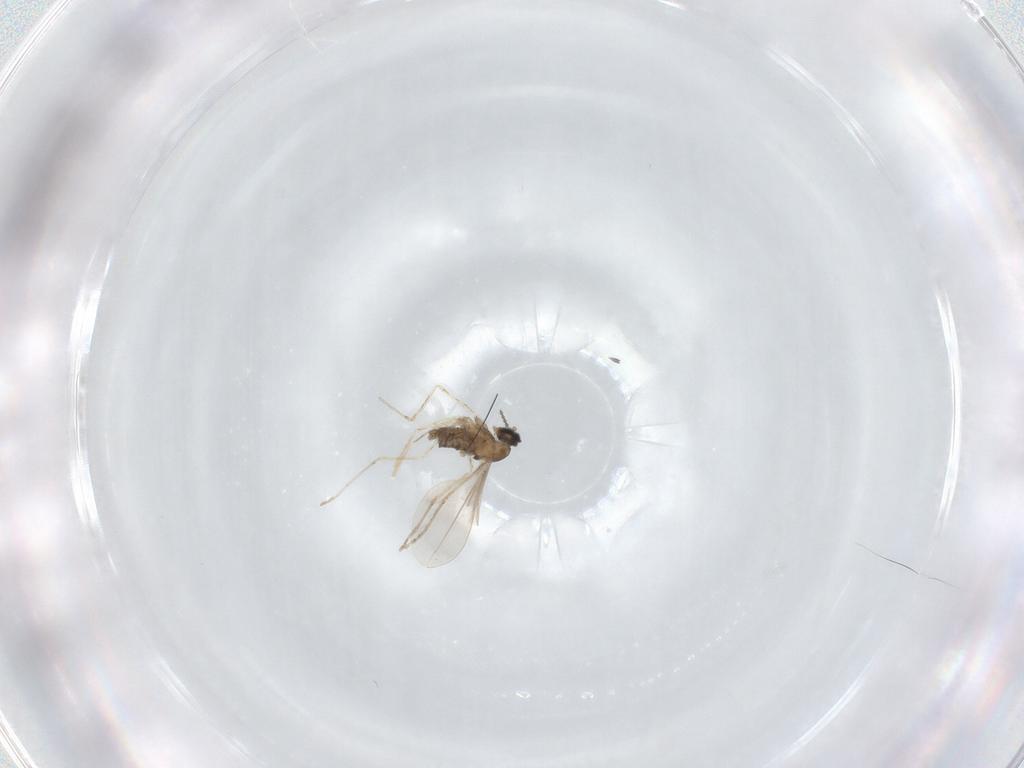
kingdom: Animalia
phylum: Arthropoda
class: Insecta
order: Diptera
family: Cecidomyiidae
